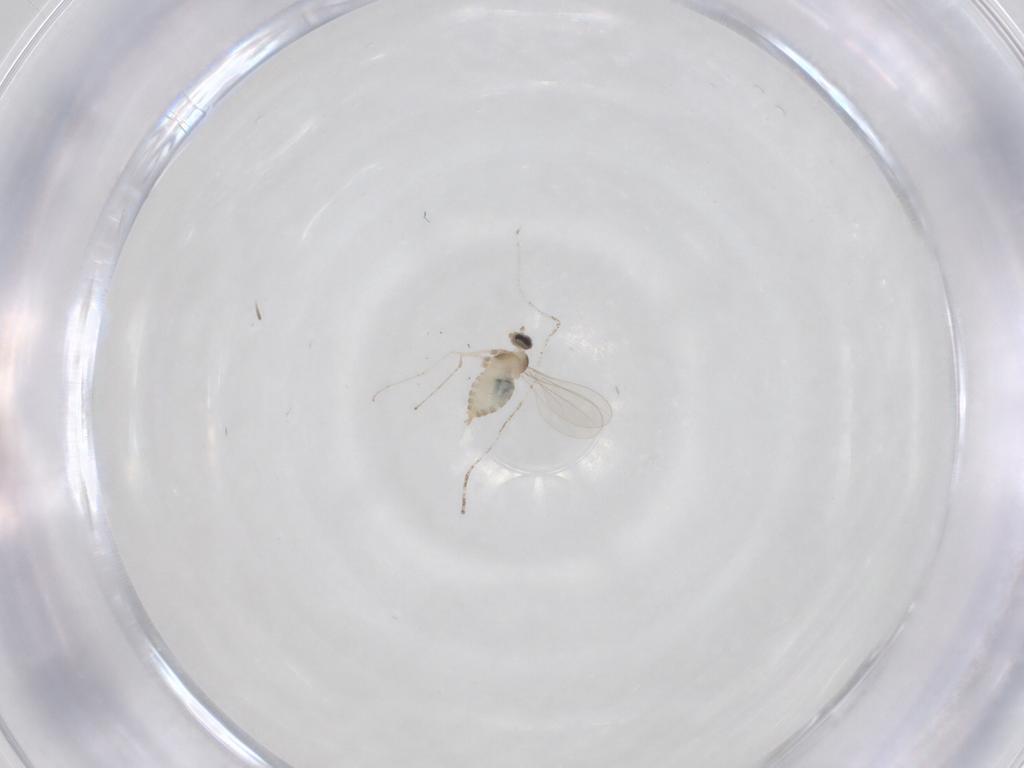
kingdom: Animalia
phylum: Arthropoda
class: Insecta
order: Diptera
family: Cecidomyiidae
